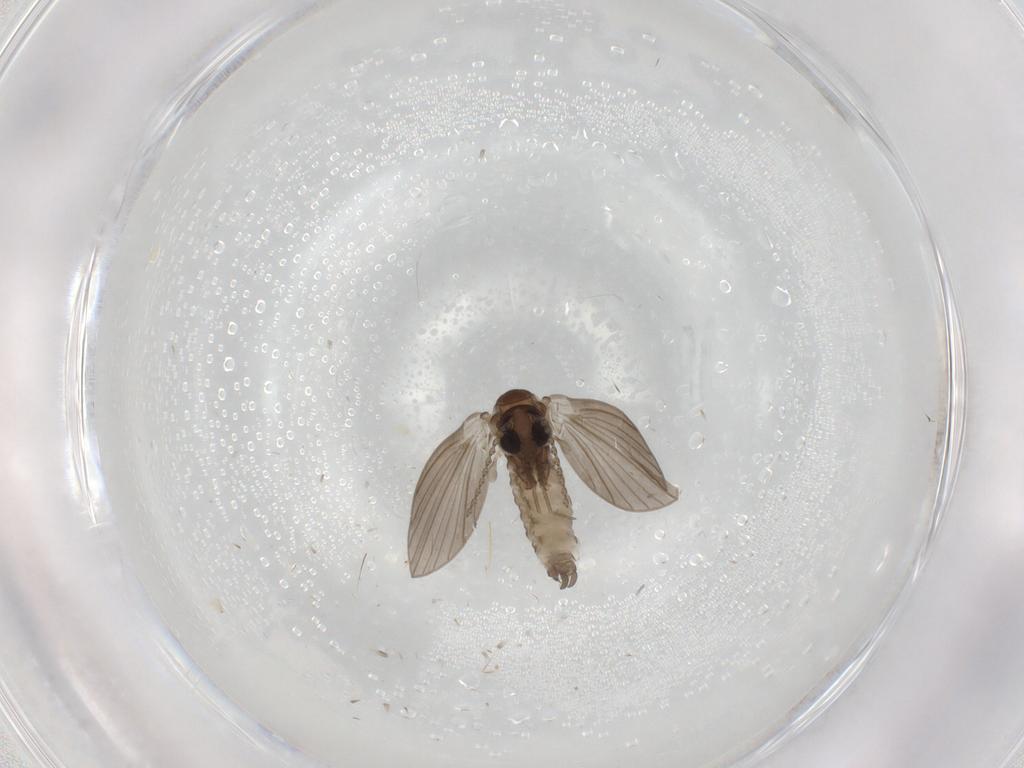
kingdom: Animalia
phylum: Arthropoda
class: Insecta
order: Diptera
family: Psychodidae
